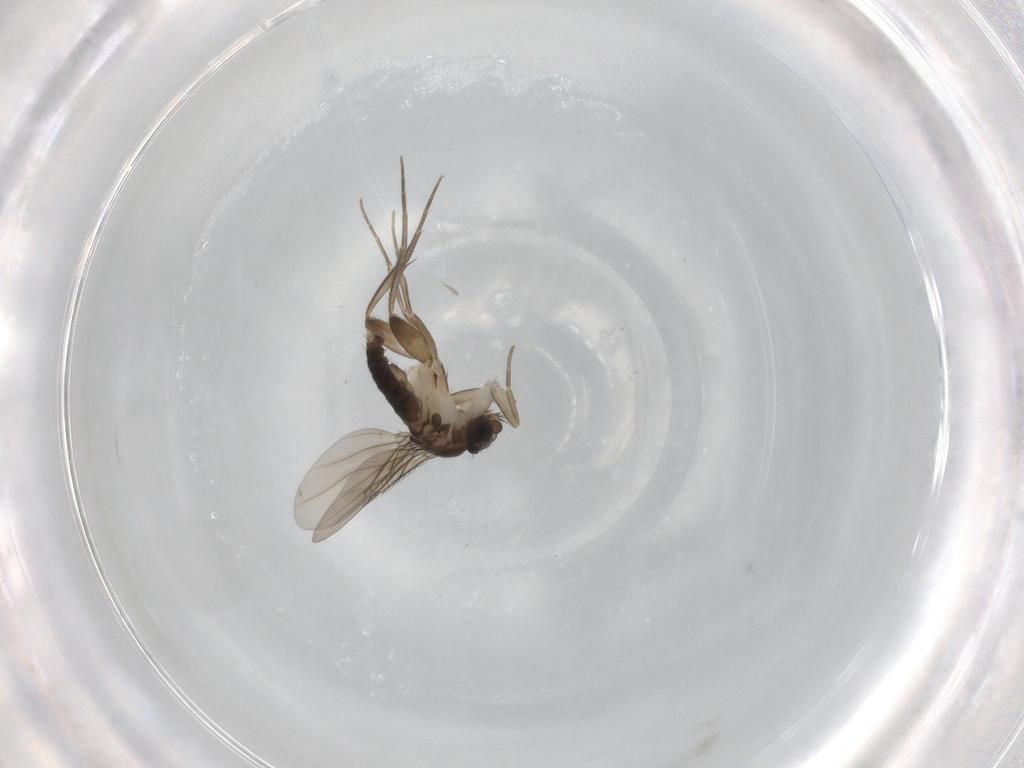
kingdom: Animalia
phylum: Arthropoda
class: Insecta
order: Diptera
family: Phoridae
